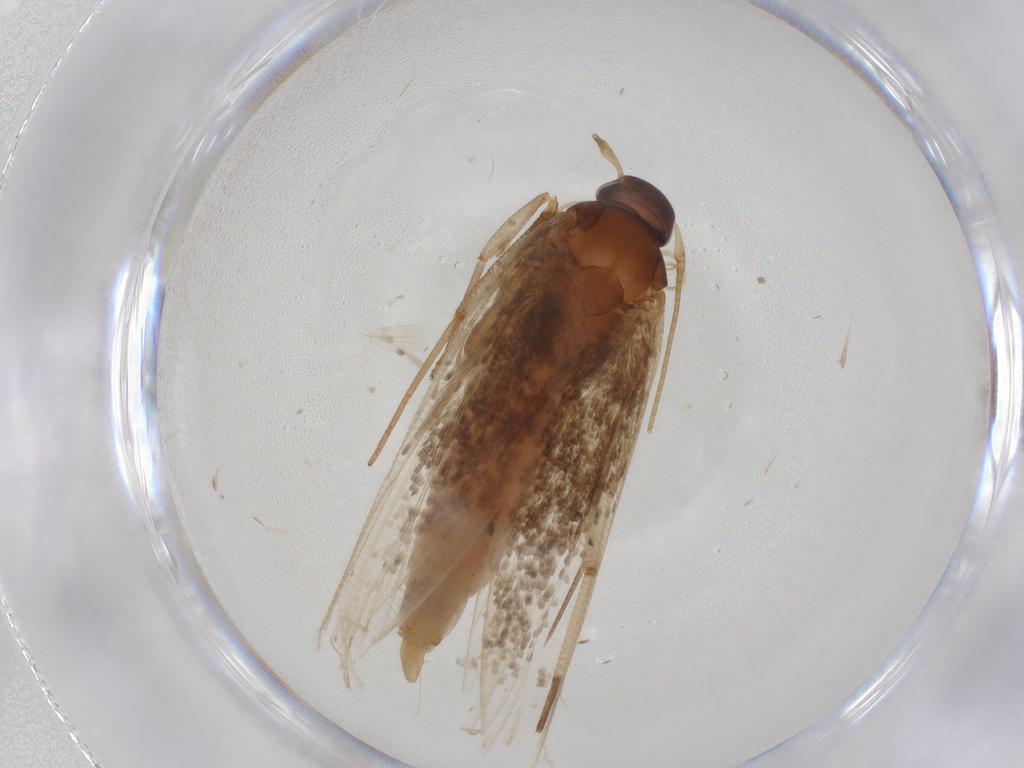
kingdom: Animalia
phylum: Arthropoda
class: Insecta
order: Lepidoptera
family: Cosmopterigidae
